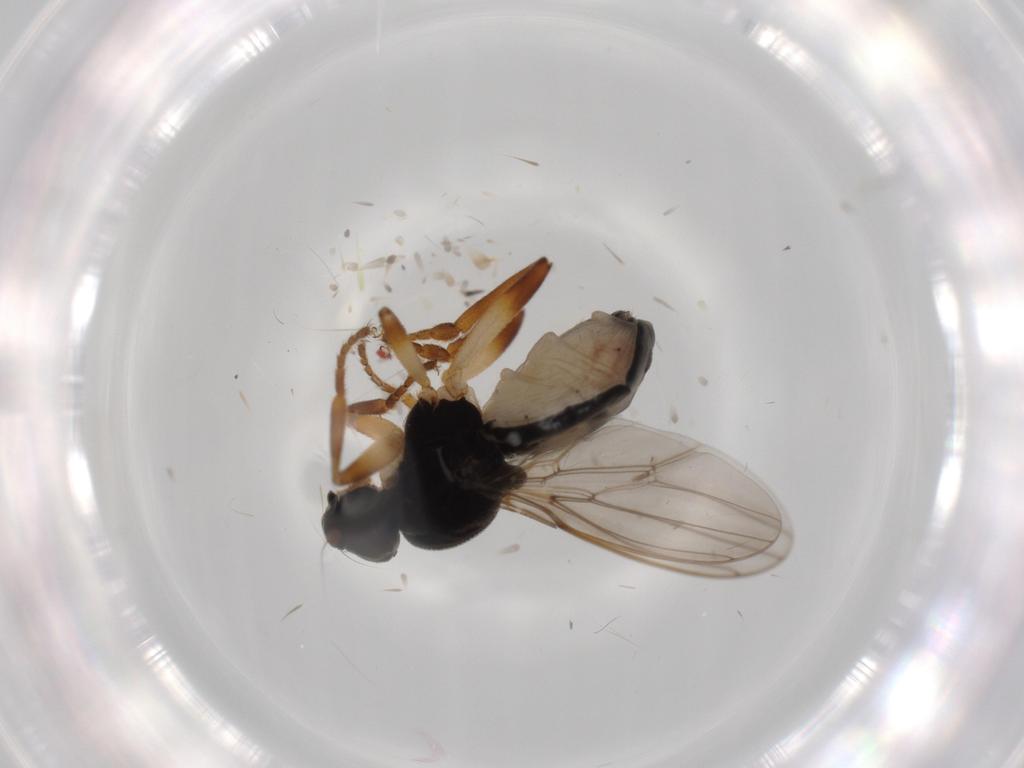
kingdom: Animalia
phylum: Arthropoda
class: Insecta
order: Diptera
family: Sphaeroceridae
